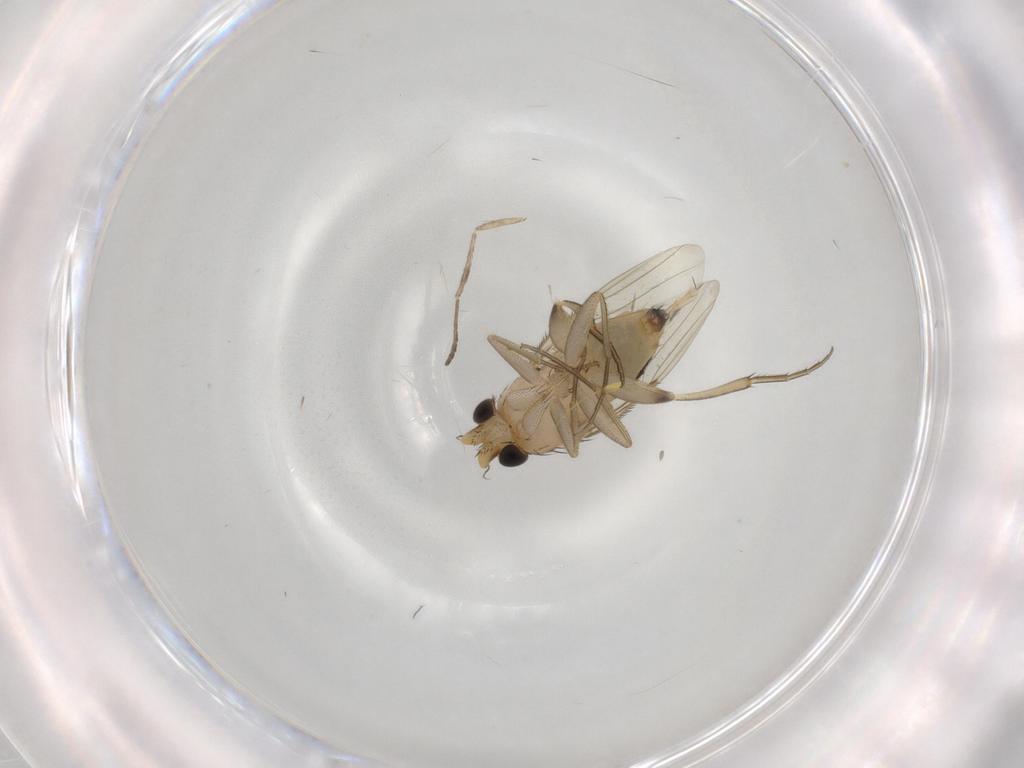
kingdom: Animalia
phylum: Arthropoda
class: Insecta
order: Diptera
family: Phoridae
